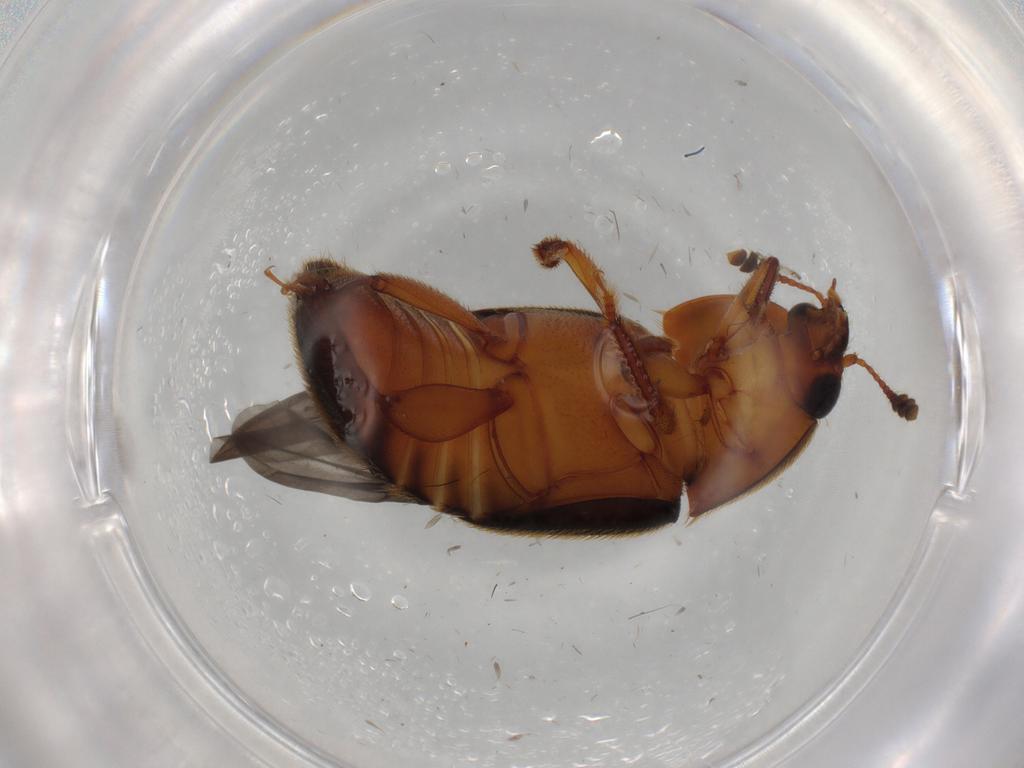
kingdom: Animalia
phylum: Arthropoda
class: Insecta
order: Coleoptera
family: Nitidulidae
